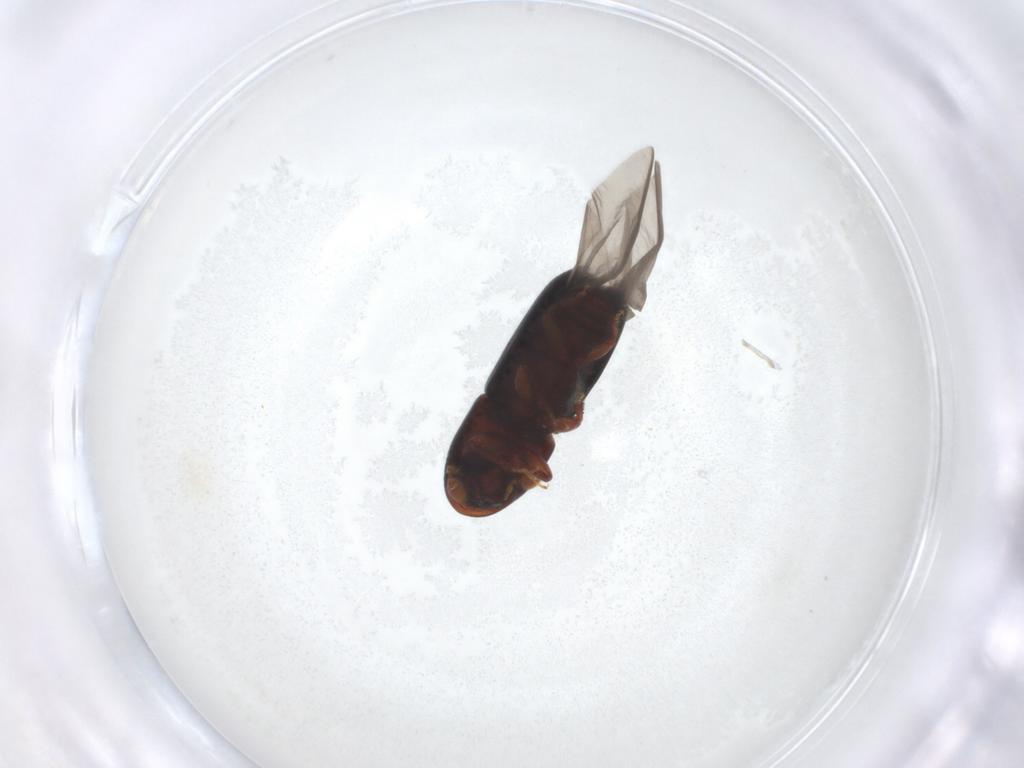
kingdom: Animalia
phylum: Arthropoda
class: Insecta
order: Coleoptera
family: Curculionidae
